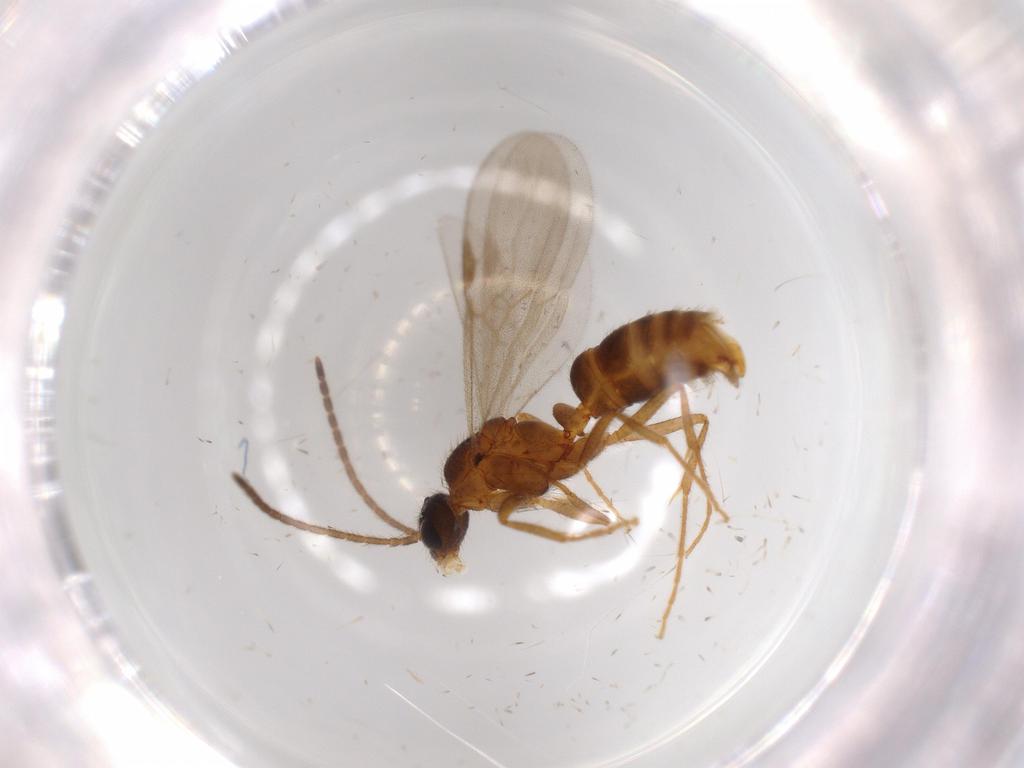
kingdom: Animalia
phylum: Arthropoda
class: Insecta
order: Hymenoptera
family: Formicidae
